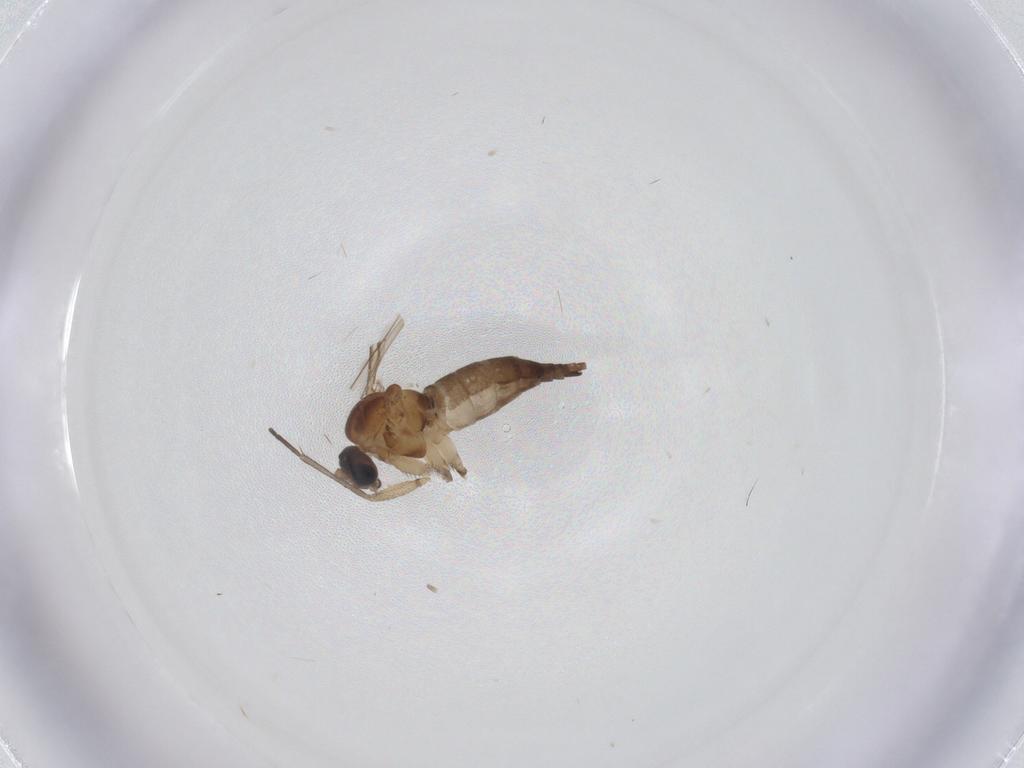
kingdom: Animalia
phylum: Arthropoda
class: Insecta
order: Diptera
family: Sciaridae
